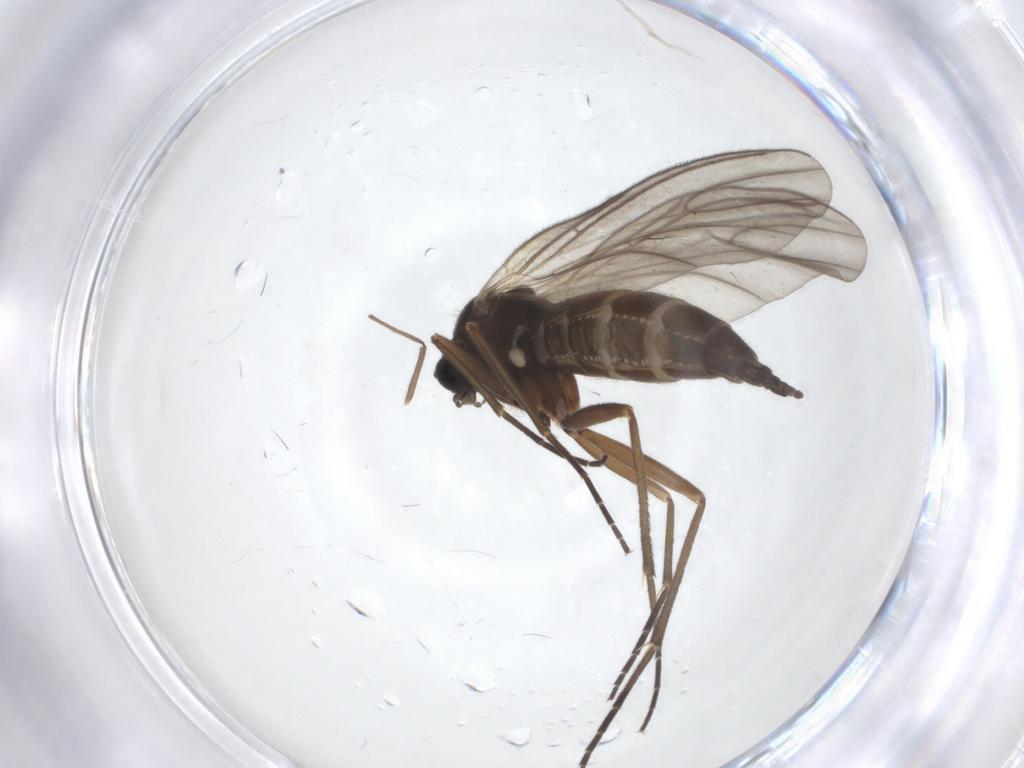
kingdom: Animalia
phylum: Arthropoda
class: Insecta
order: Diptera
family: Sciaridae
